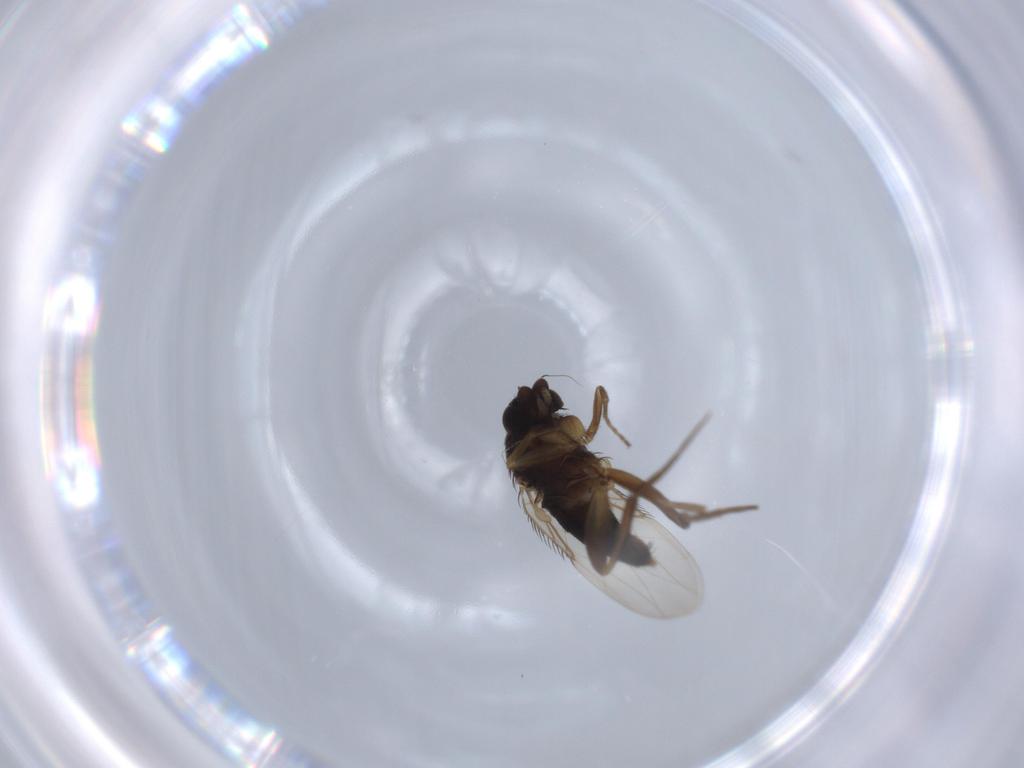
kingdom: Animalia
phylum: Arthropoda
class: Insecta
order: Diptera
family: Phoridae
